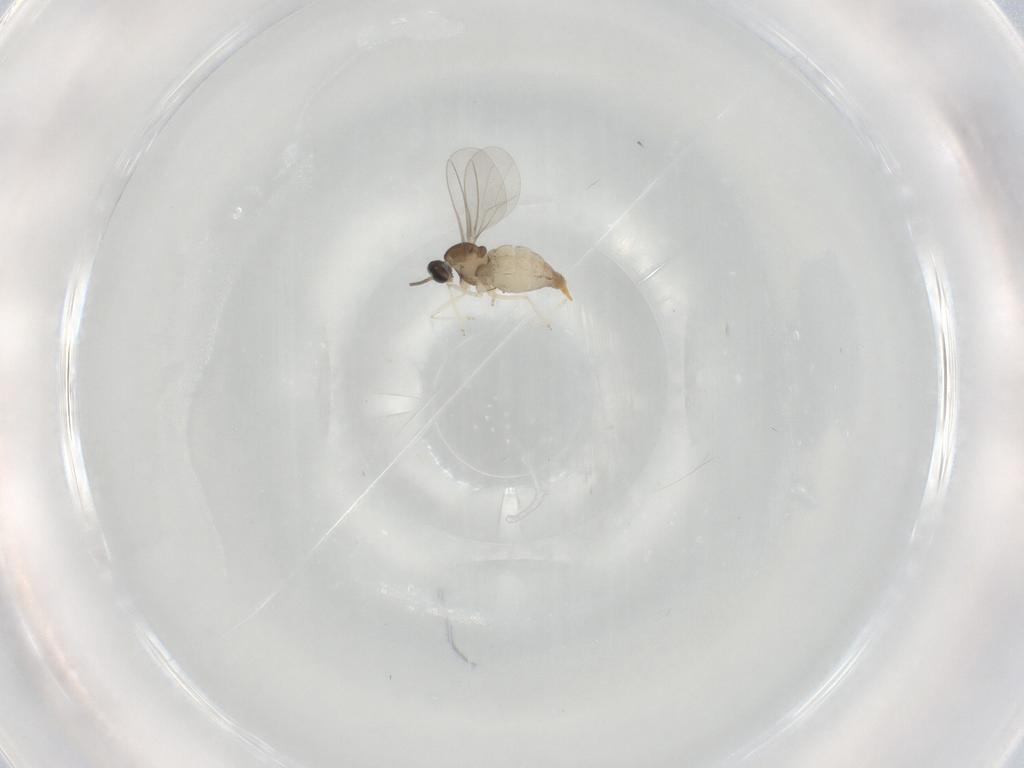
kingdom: Animalia
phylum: Arthropoda
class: Insecta
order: Diptera
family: Cecidomyiidae
